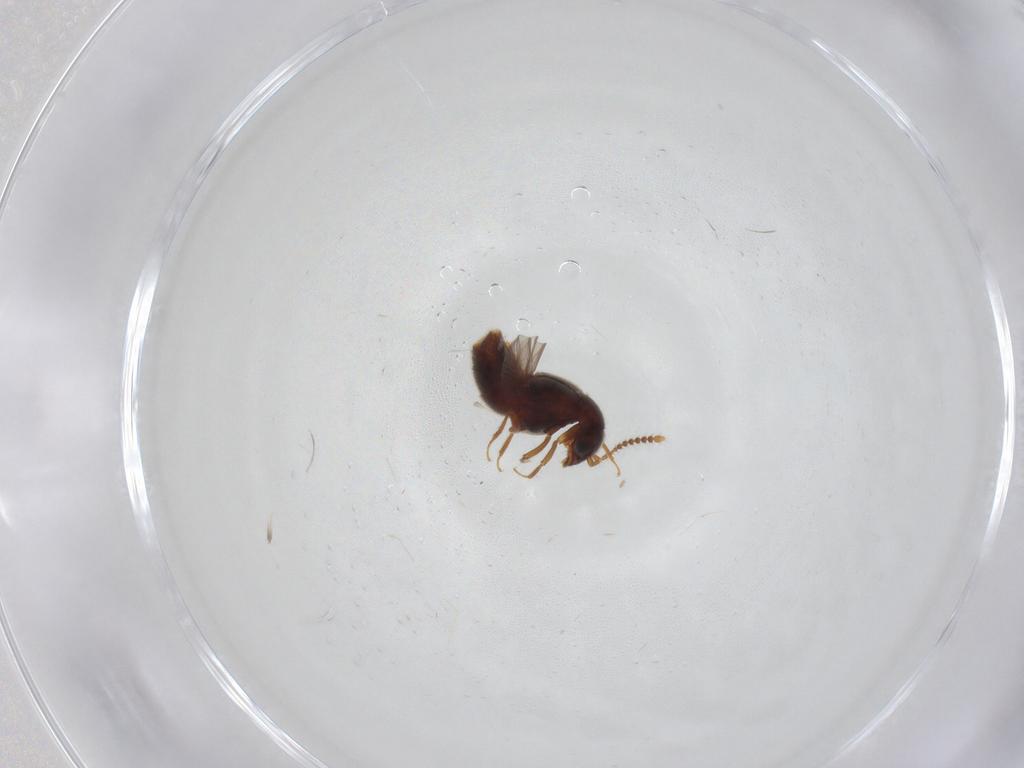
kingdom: Animalia
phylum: Arthropoda
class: Insecta
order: Coleoptera
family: Staphylinidae
